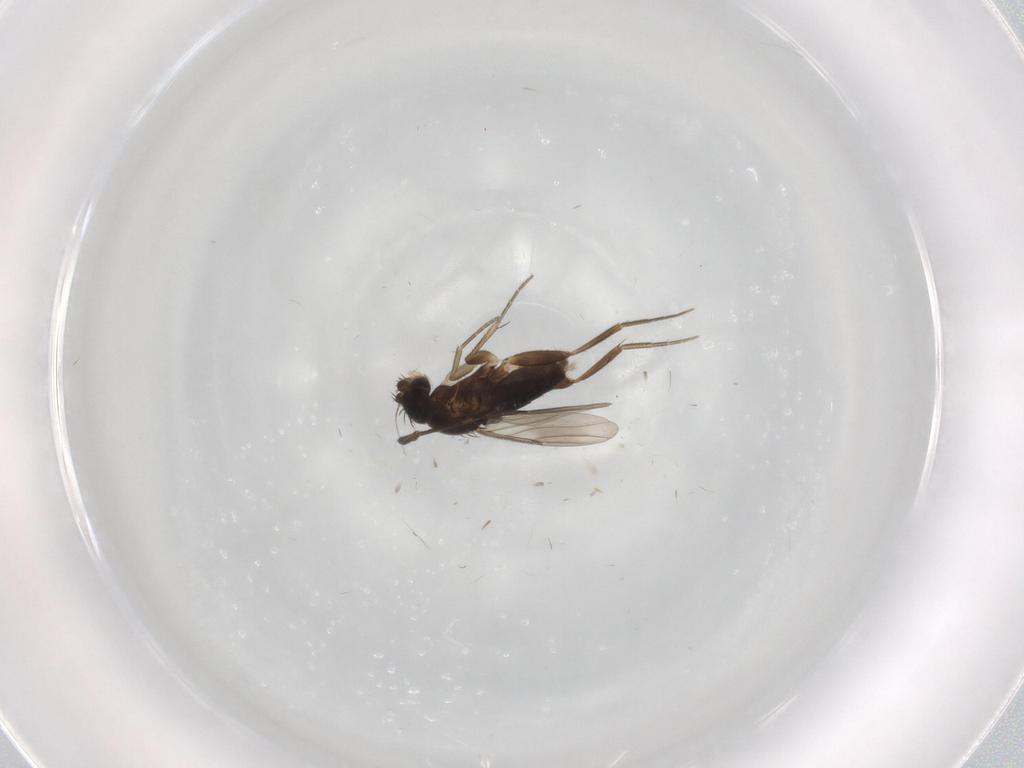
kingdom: Animalia
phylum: Arthropoda
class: Insecta
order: Diptera
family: Phoridae
